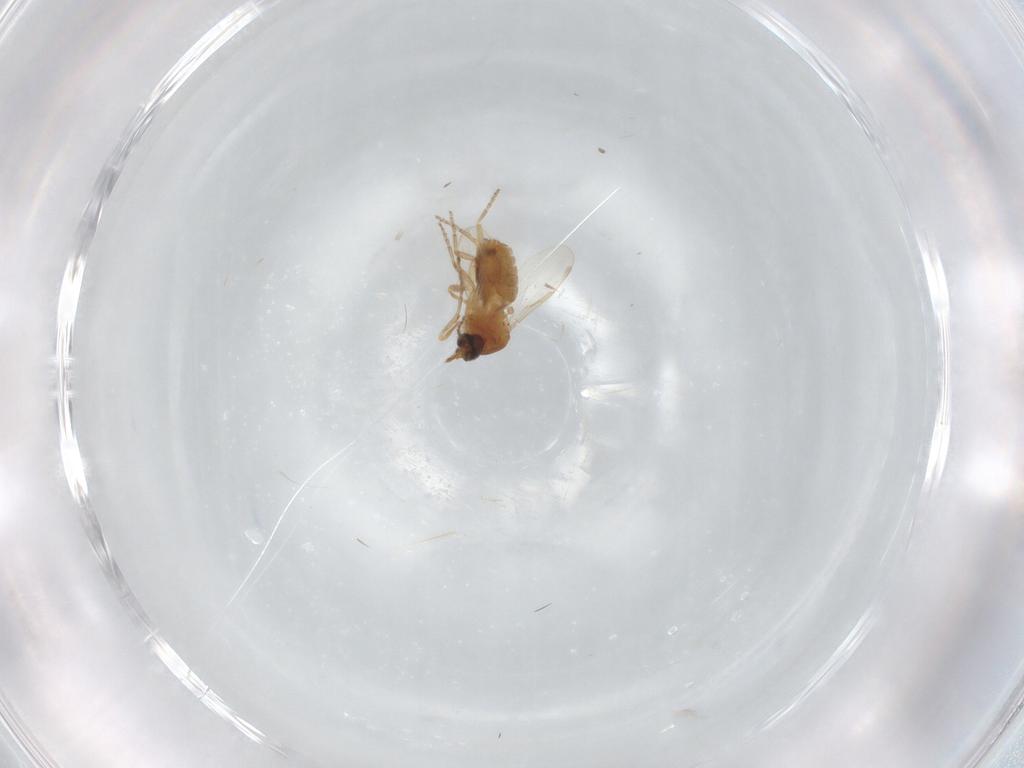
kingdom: Animalia
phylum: Arthropoda
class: Insecta
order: Diptera
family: Ceratopogonidae
